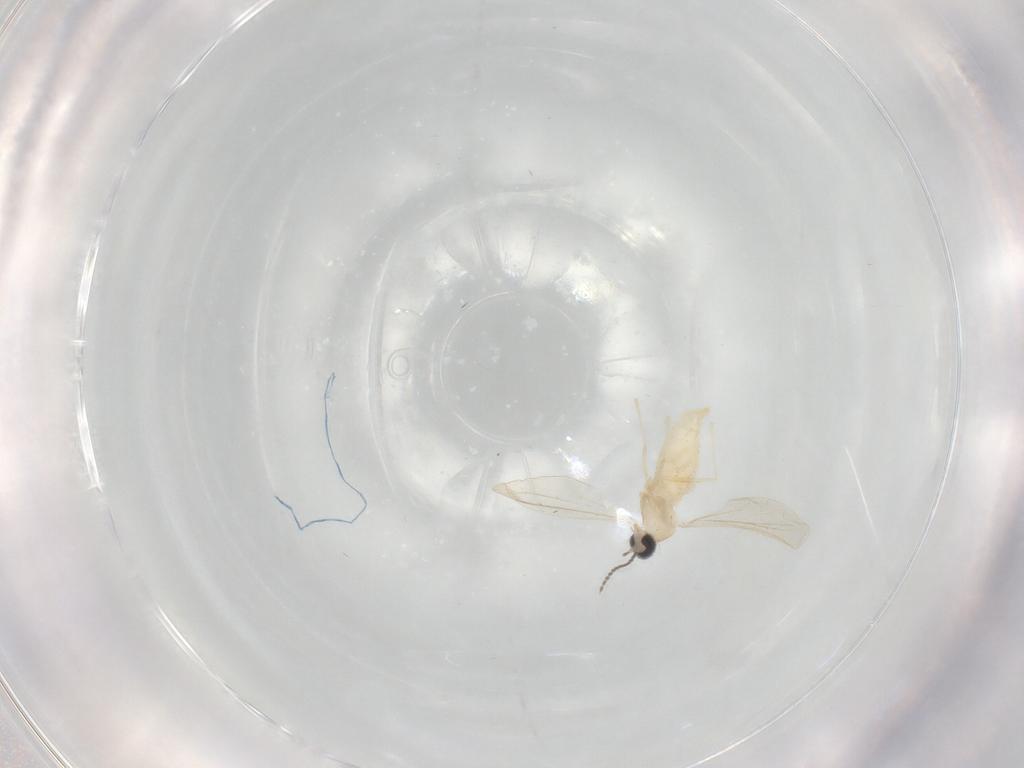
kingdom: Animalia
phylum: Arthropoda
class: Insecta
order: Diptera
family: Cecidomyiidae
